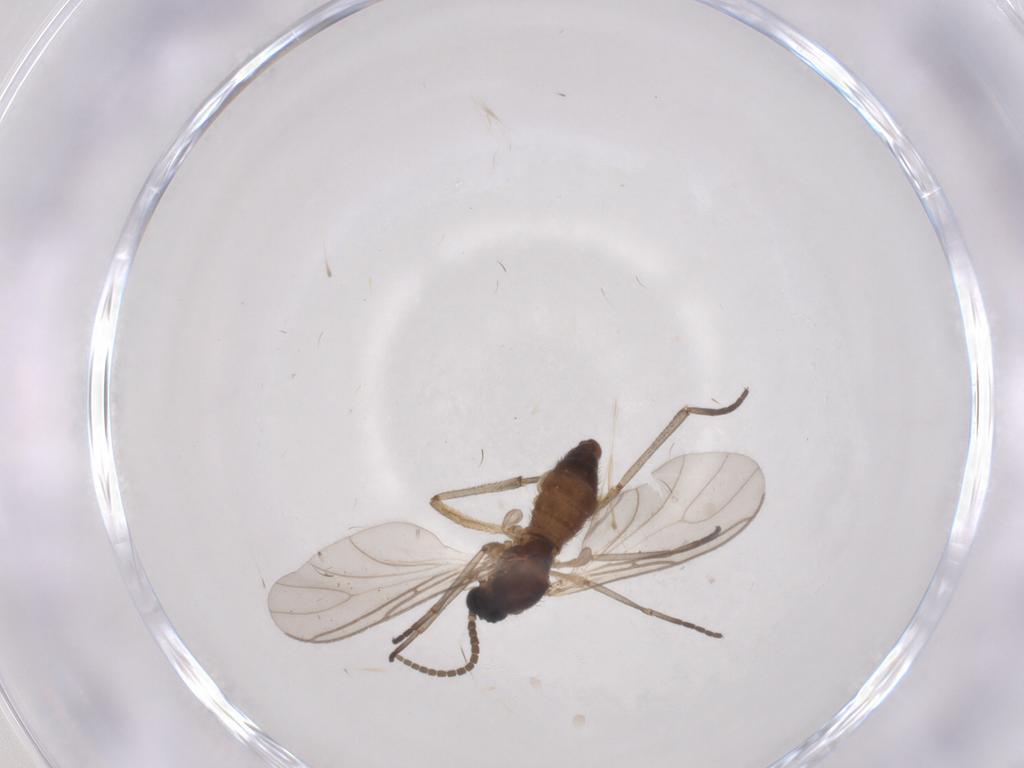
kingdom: Animalia
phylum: Arthropoda
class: Insecta
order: Diptera
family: Sciaridae
